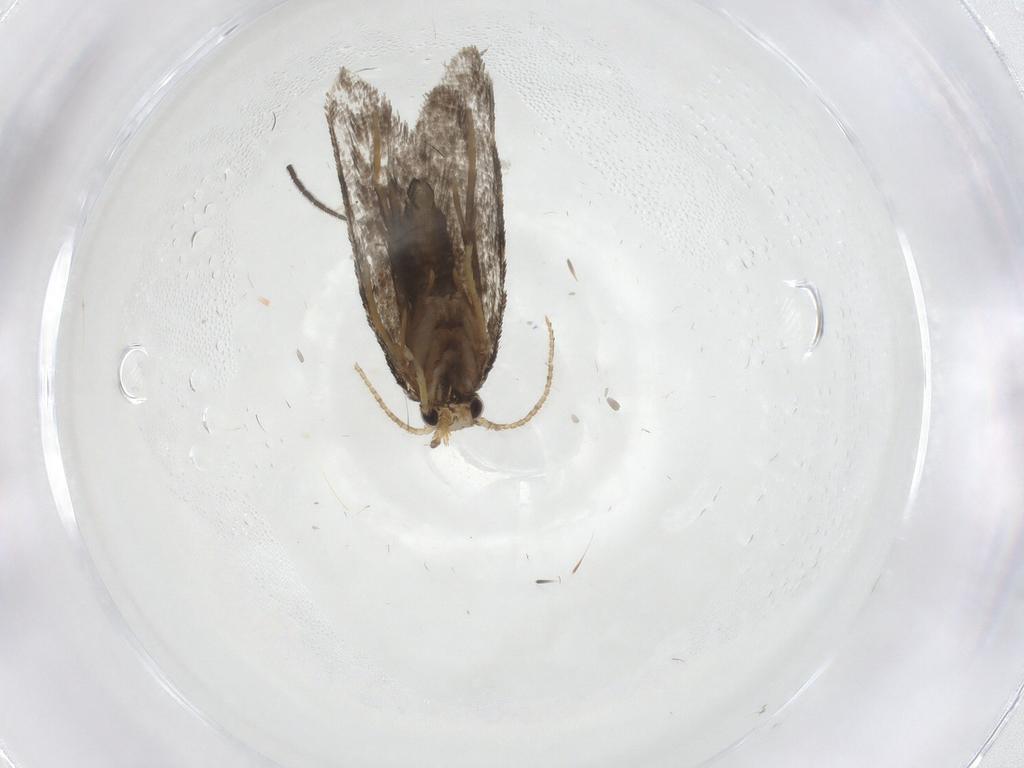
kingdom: Animalia
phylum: Arthropoda
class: Insecta
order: Lepidoptera
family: Psychidae
